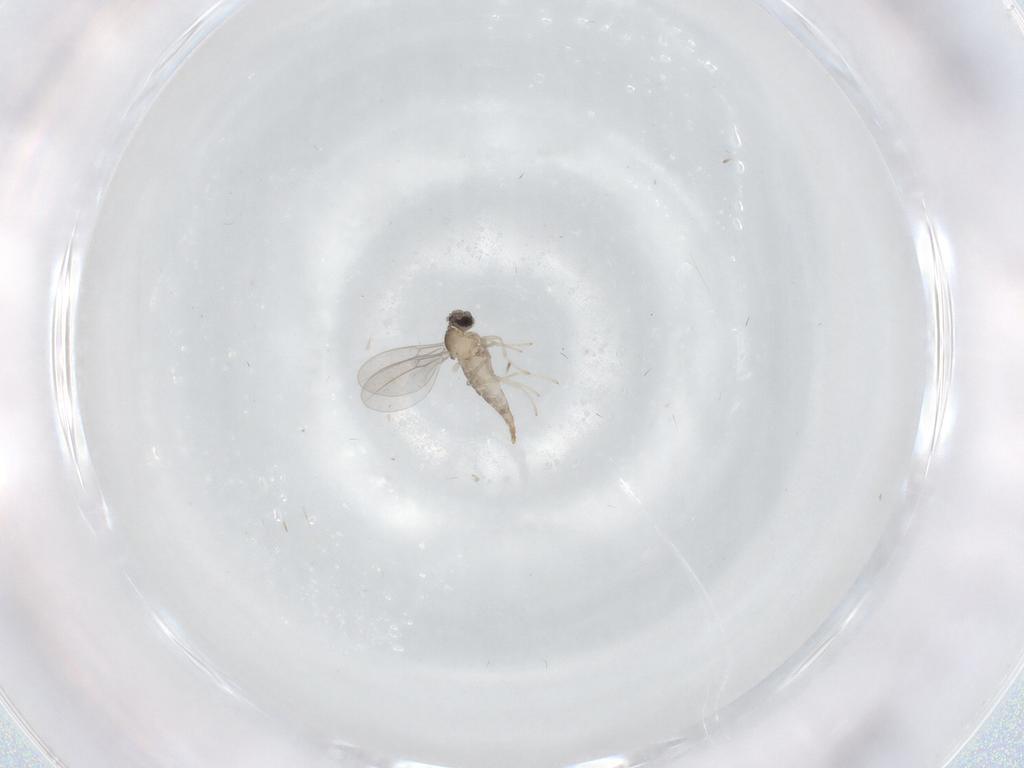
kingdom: Animalia
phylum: Arthropoda
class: Insecta
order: Diptera
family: Cecidomyiidae
